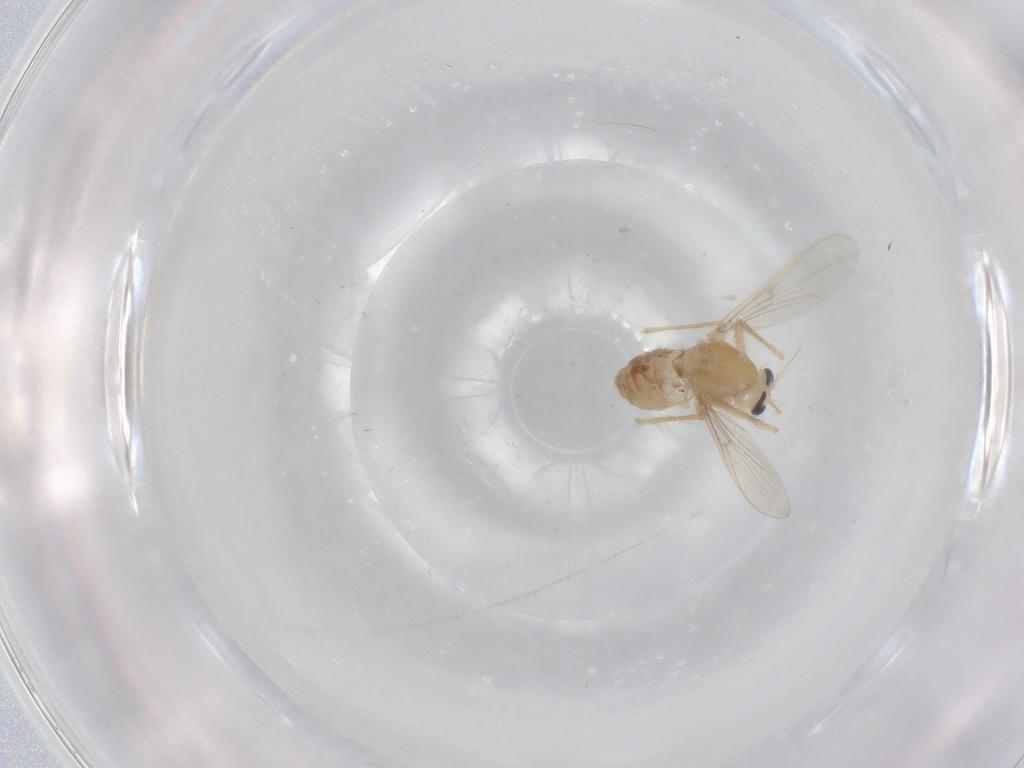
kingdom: Animalia
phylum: Arthropoda
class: Insecta
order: Diptera
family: Chironomidae
